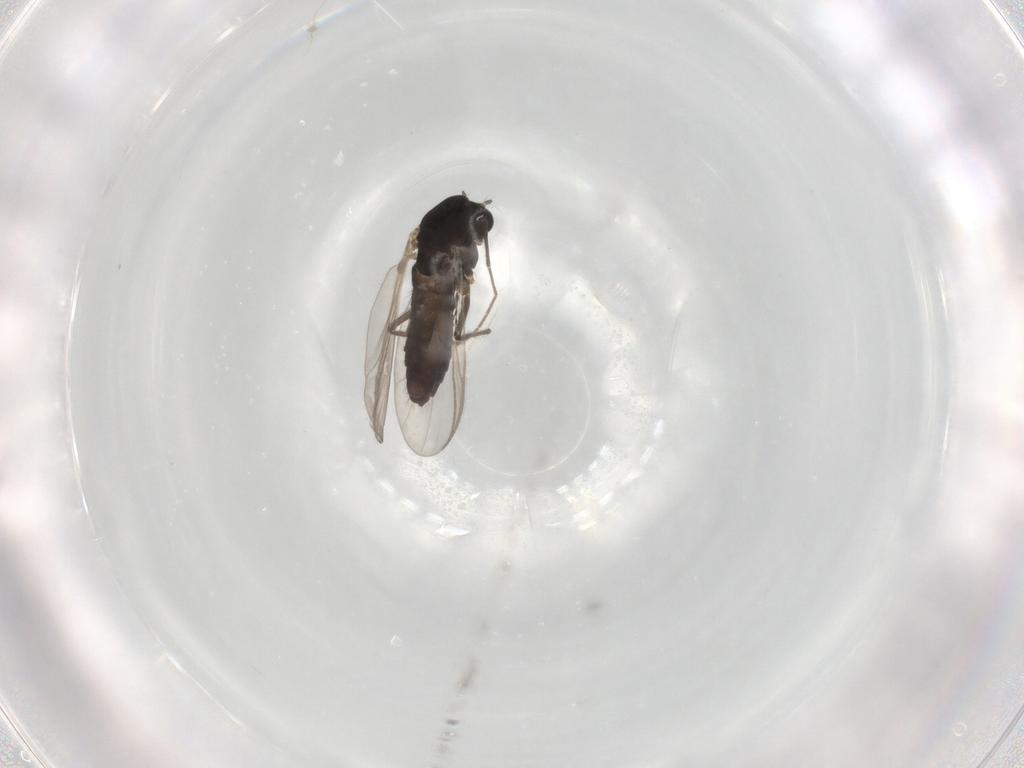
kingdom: Animalia
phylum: Arthropoda
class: Insecta
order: Diptera
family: Chironomidae
